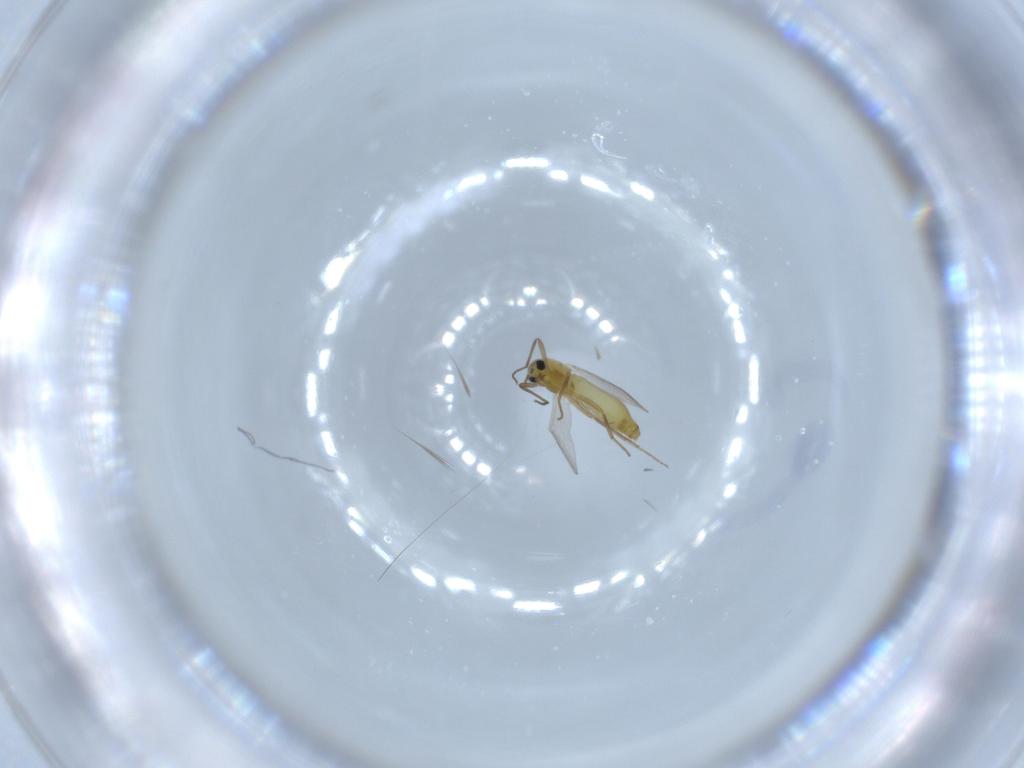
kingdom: Animalia
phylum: Arthropoda
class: Insecta
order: Diptera
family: Chironomidae
